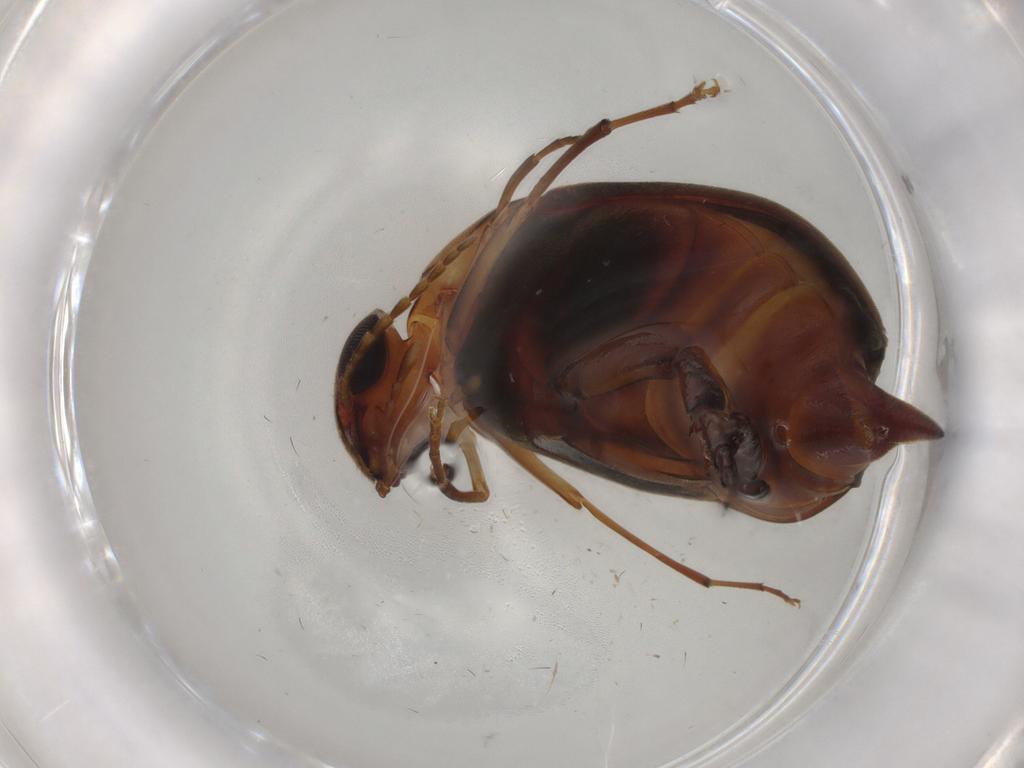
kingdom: Animalia
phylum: Arthropoda
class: Insecta
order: Coleoptera
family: Mordellidae
